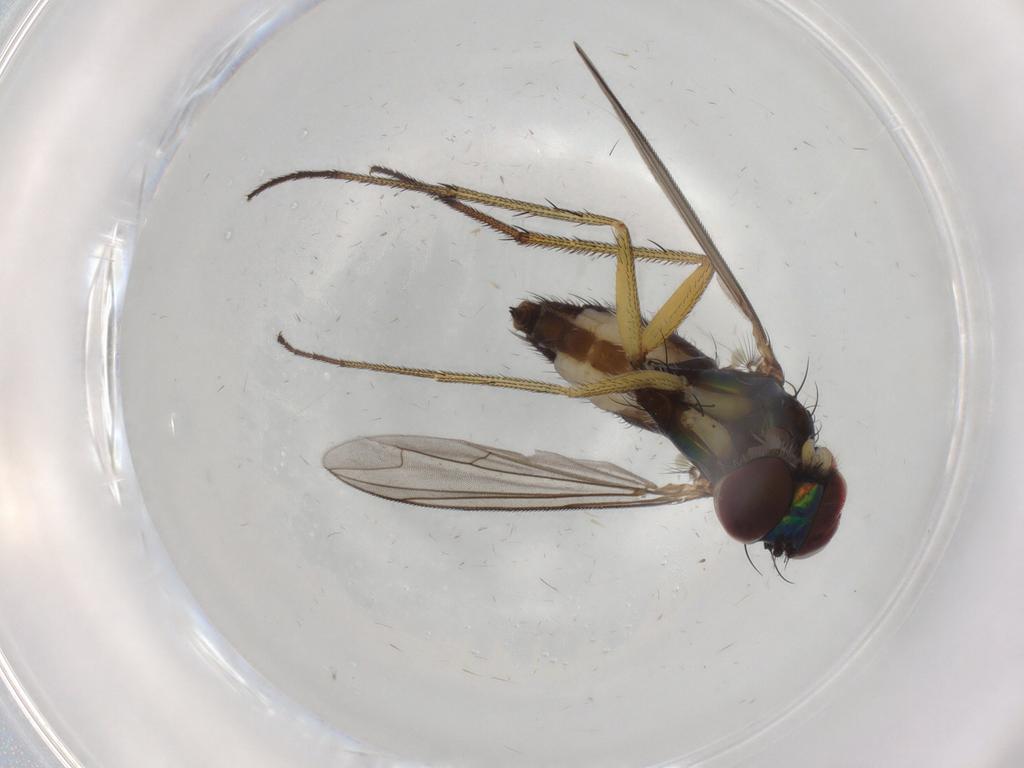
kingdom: Animalia
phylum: Arthropoda
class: Insecta
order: Diptera
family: Dolichopodidae
